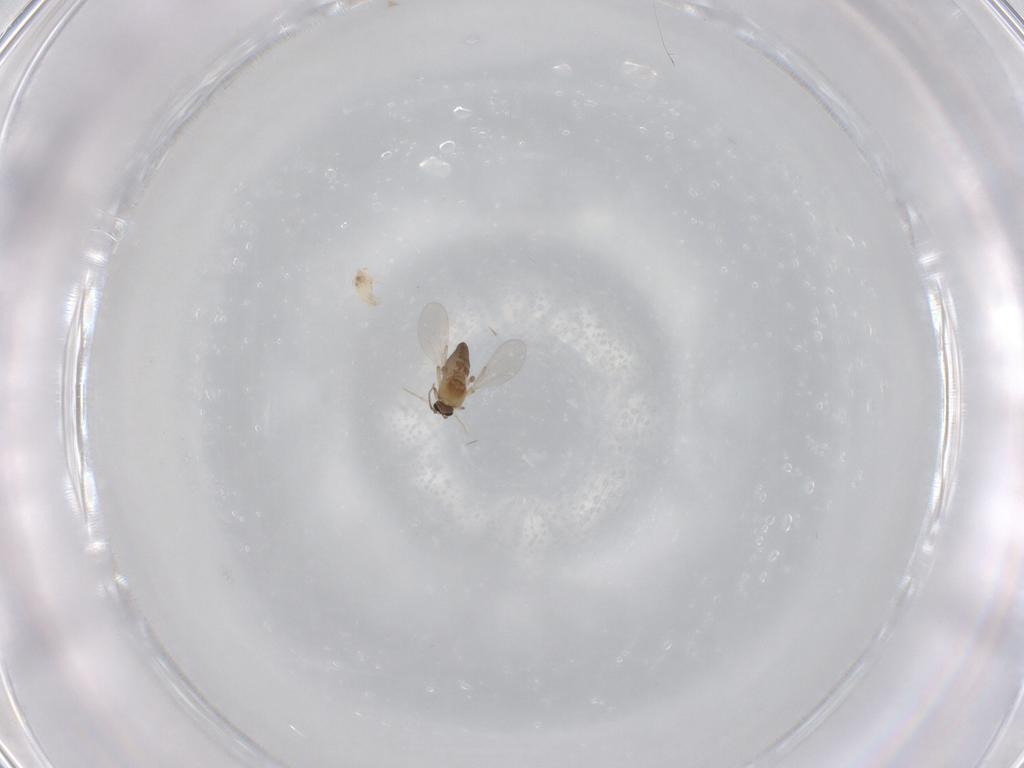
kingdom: Animalia
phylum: Arthropoda
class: Insecta
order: Diptera
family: Cecidomyiidae
